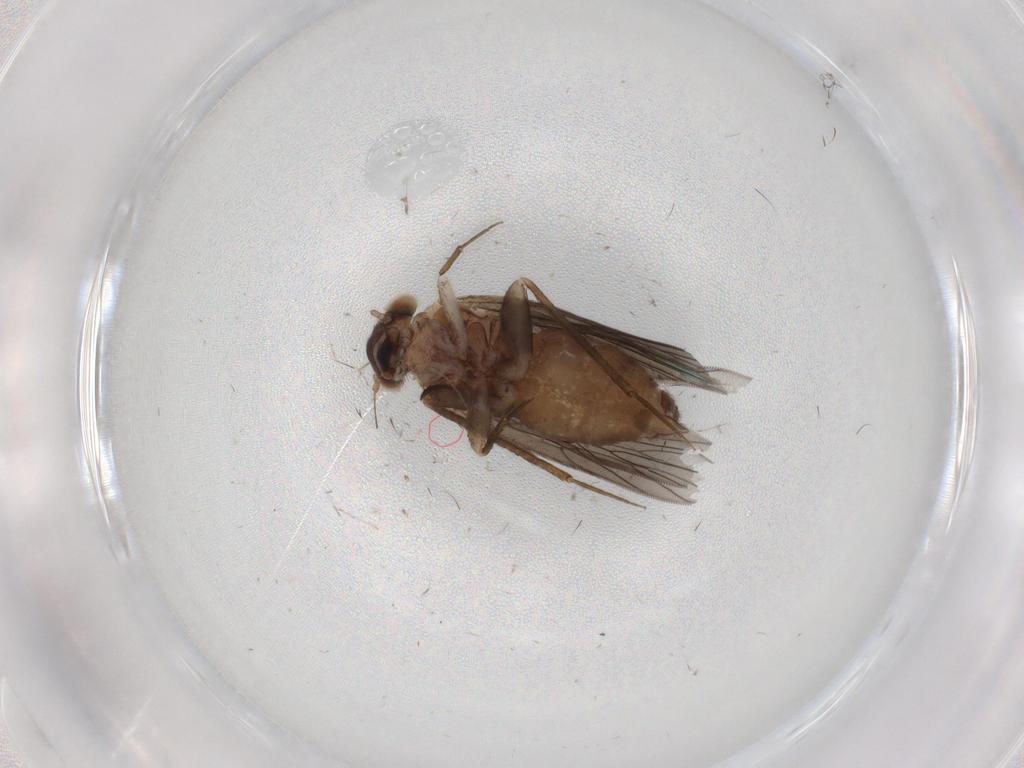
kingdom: Animalia
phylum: Arthropoda
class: Insecta
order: Psocodea
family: Lepidopsocidae
